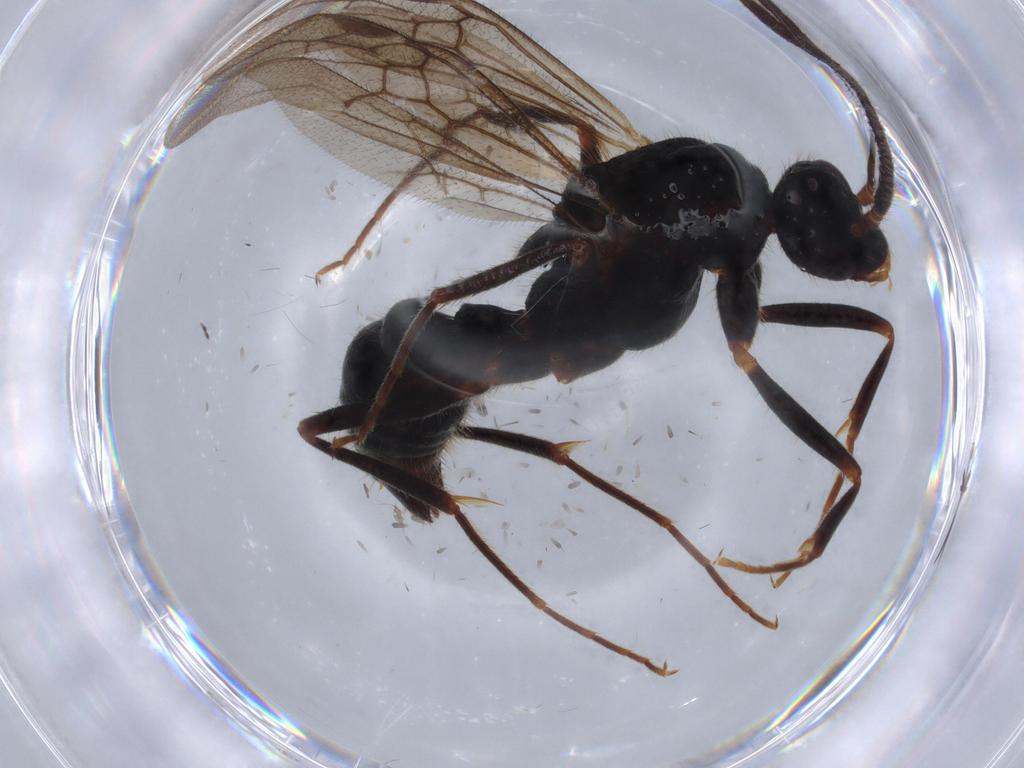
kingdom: Animalia
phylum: Arthropoda
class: Insecta
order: Hymenoptera
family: Formicidae
